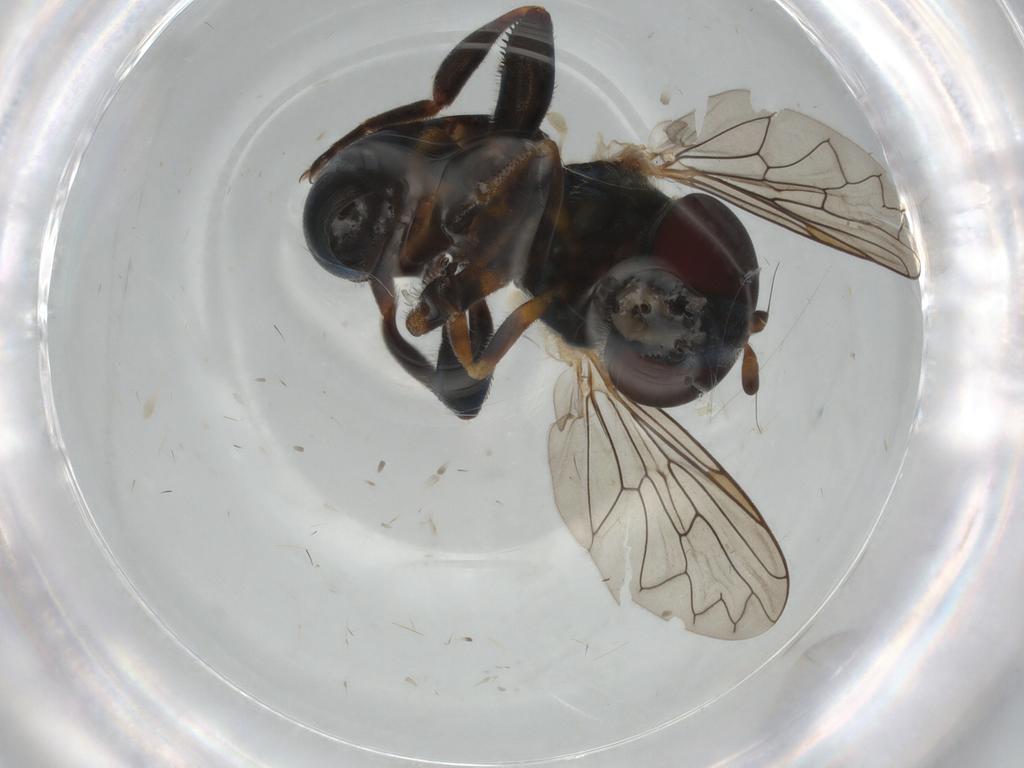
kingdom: Animalia
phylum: Arthropoda
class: Insecta
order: Diptera
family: Syrphidae
